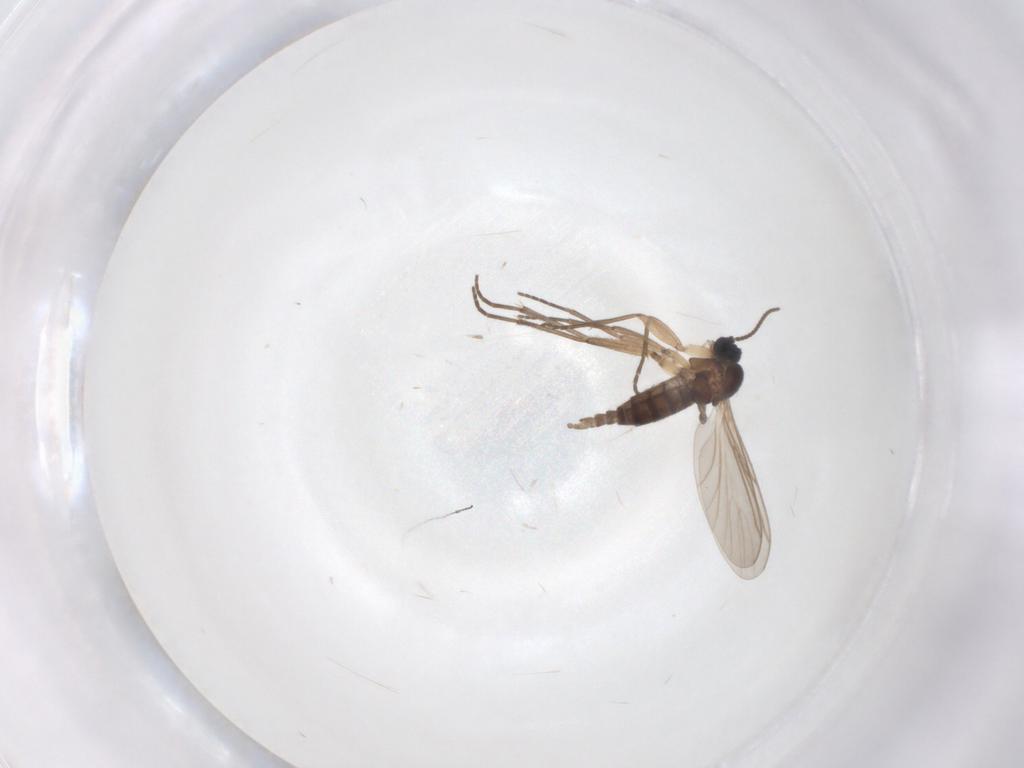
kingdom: Animalia
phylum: Arthropoda
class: Insecta
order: Diptera
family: Sciaridae
